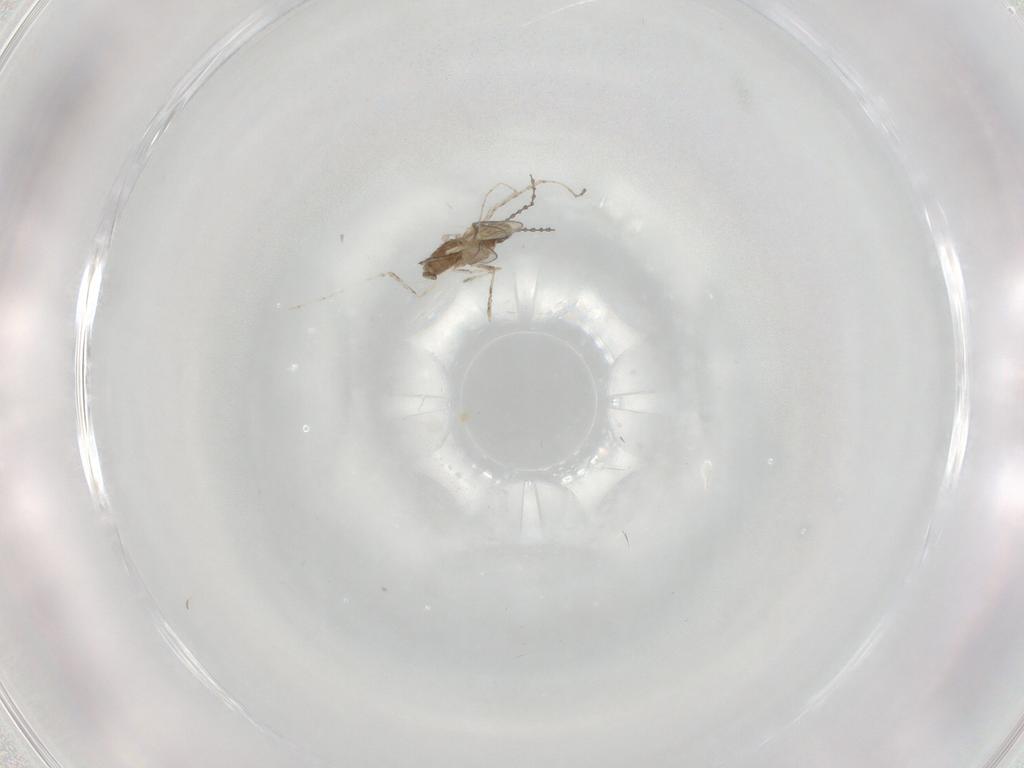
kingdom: Animalia
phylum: Arthropoda
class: Insecta
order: Diptera
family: Cecidomyiidae
